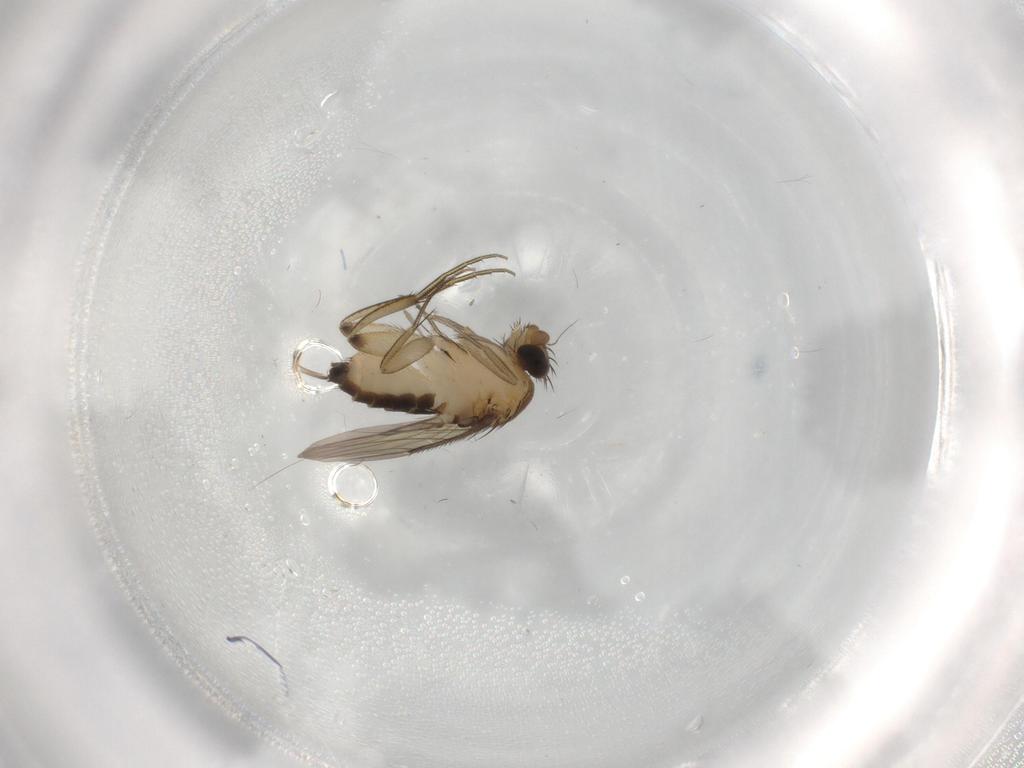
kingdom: Animalia
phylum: Arthropoda
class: Insecta
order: Diptera
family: Phoridae
